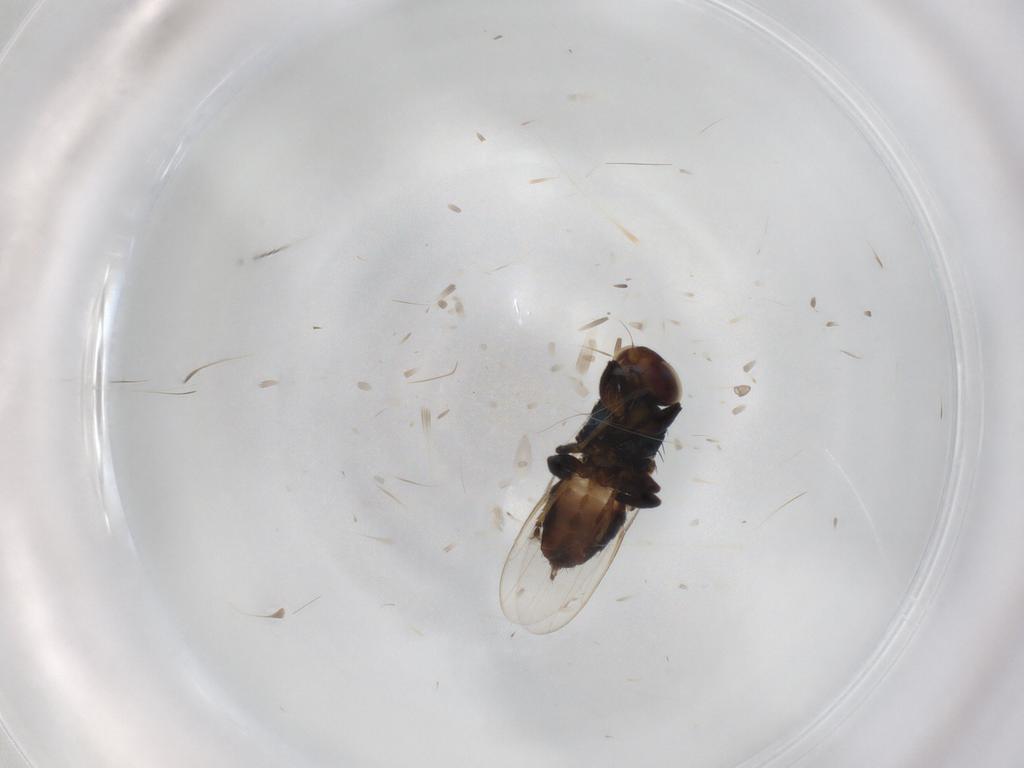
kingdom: Animalia
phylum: Arthropoda
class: Insecta
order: Diptera
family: Chloropidae
